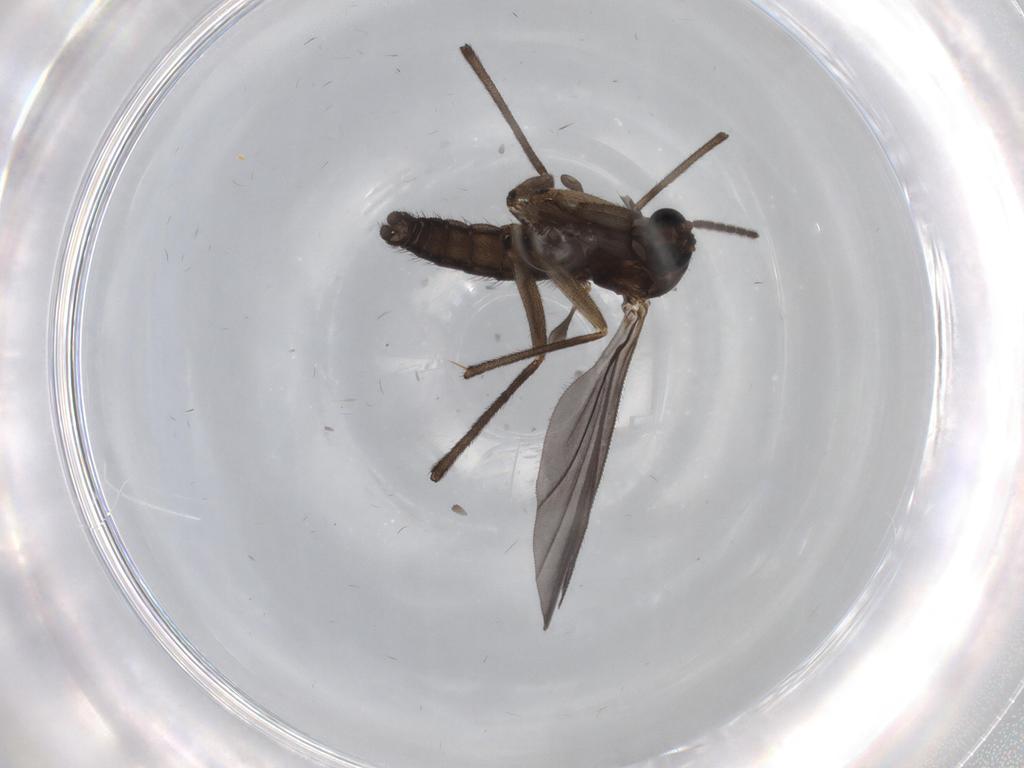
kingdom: Animalia
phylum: Arthropoda
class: Insecta
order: Diptera
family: Sciaridae
